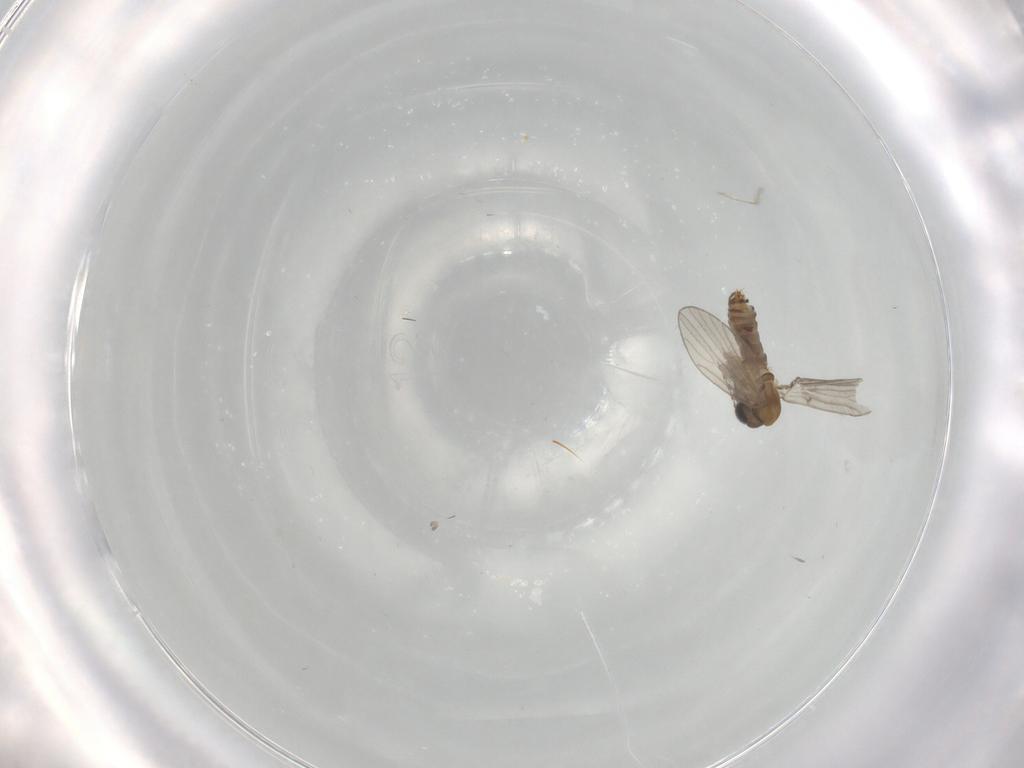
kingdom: Animalia
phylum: Arthropoda
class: Insecta
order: Diptera
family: Psychodidae
